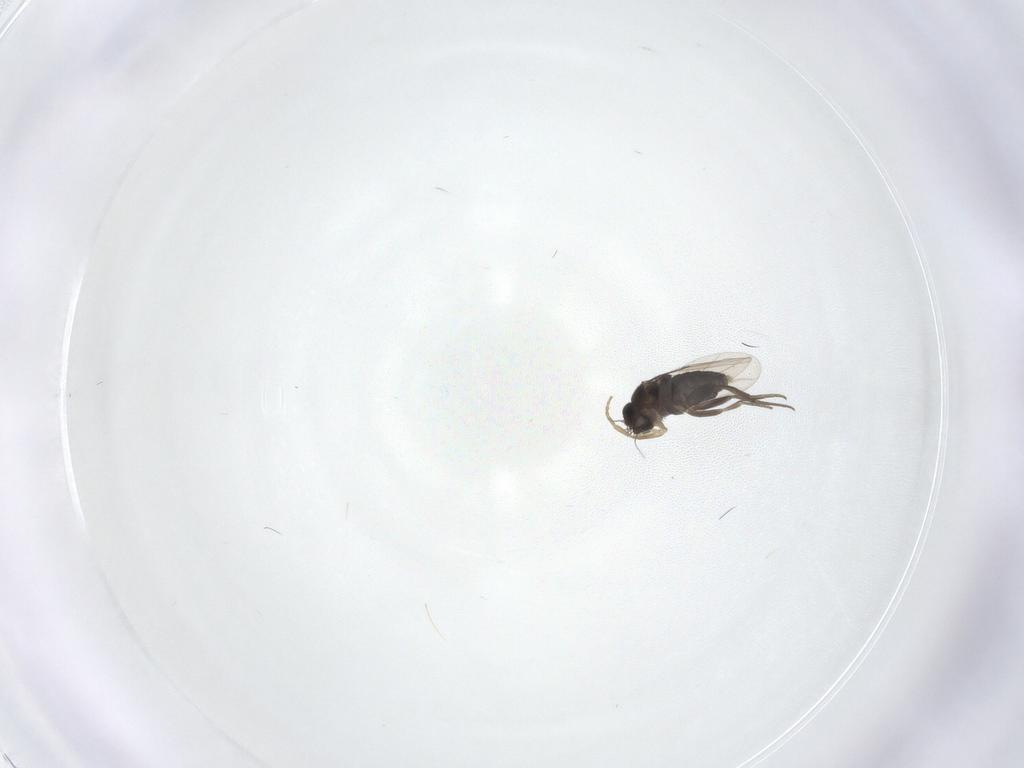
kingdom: Animalia
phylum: Arthropoda
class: Insecta
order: Diptera
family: Phoridae
